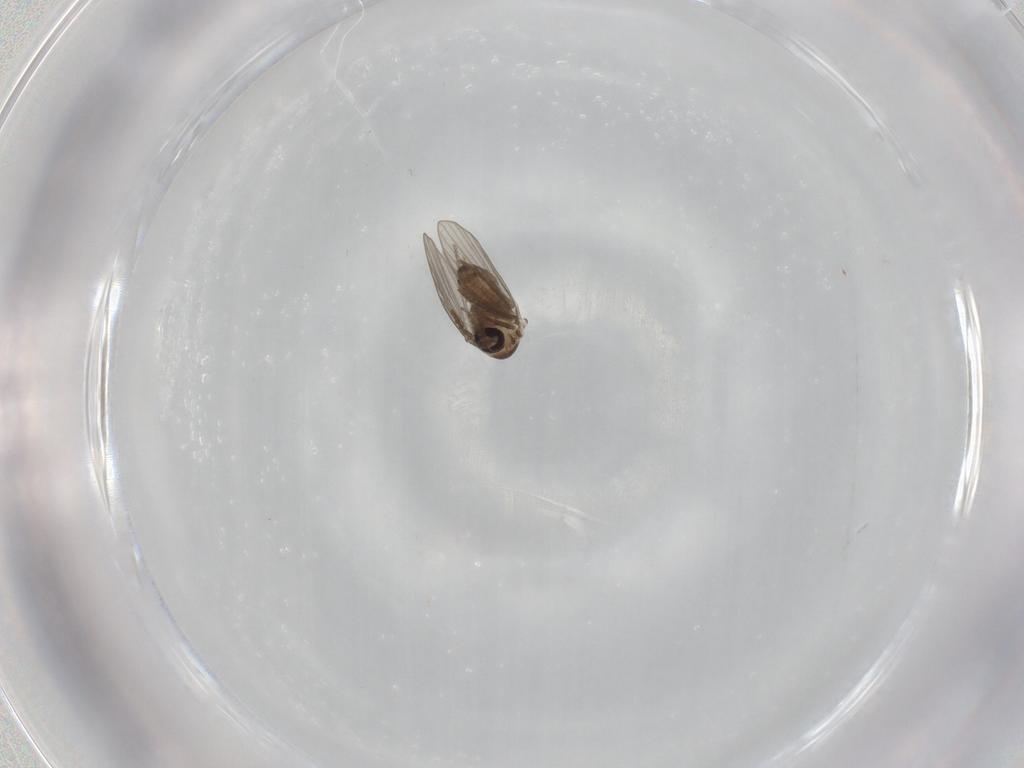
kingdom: Animalia
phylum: Arthropoda
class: Insecta
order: Diptera
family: Psychodidae
